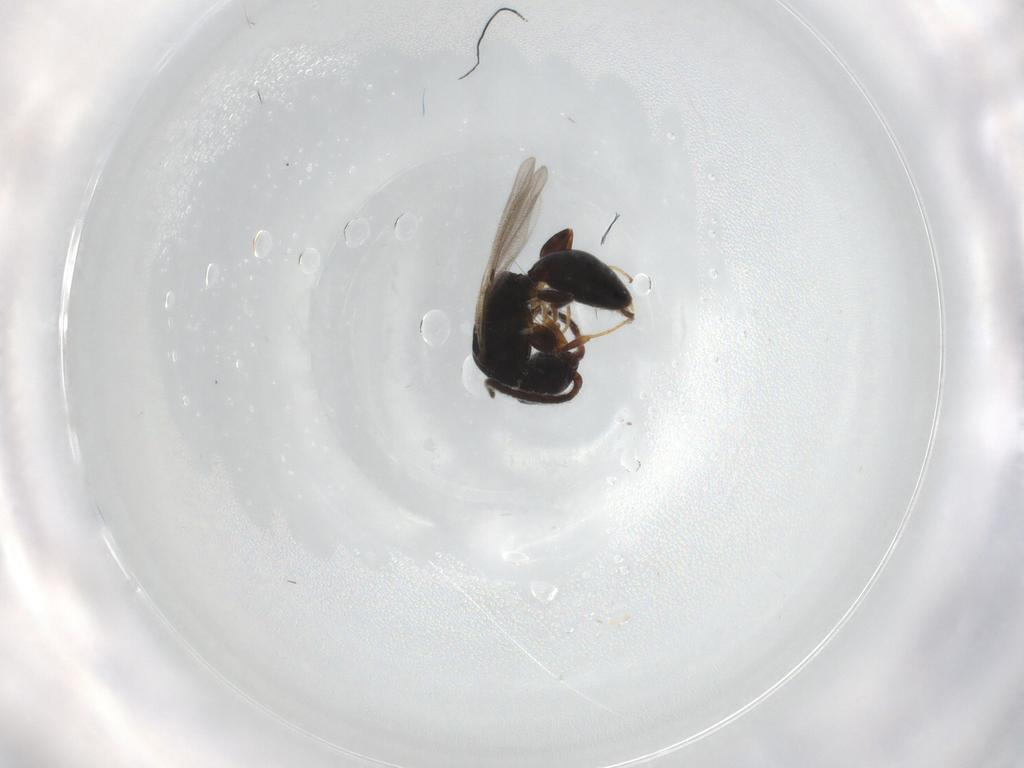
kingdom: Animalia
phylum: Arthropoda
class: Insecta
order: Hymenoptera
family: Bethylidae
